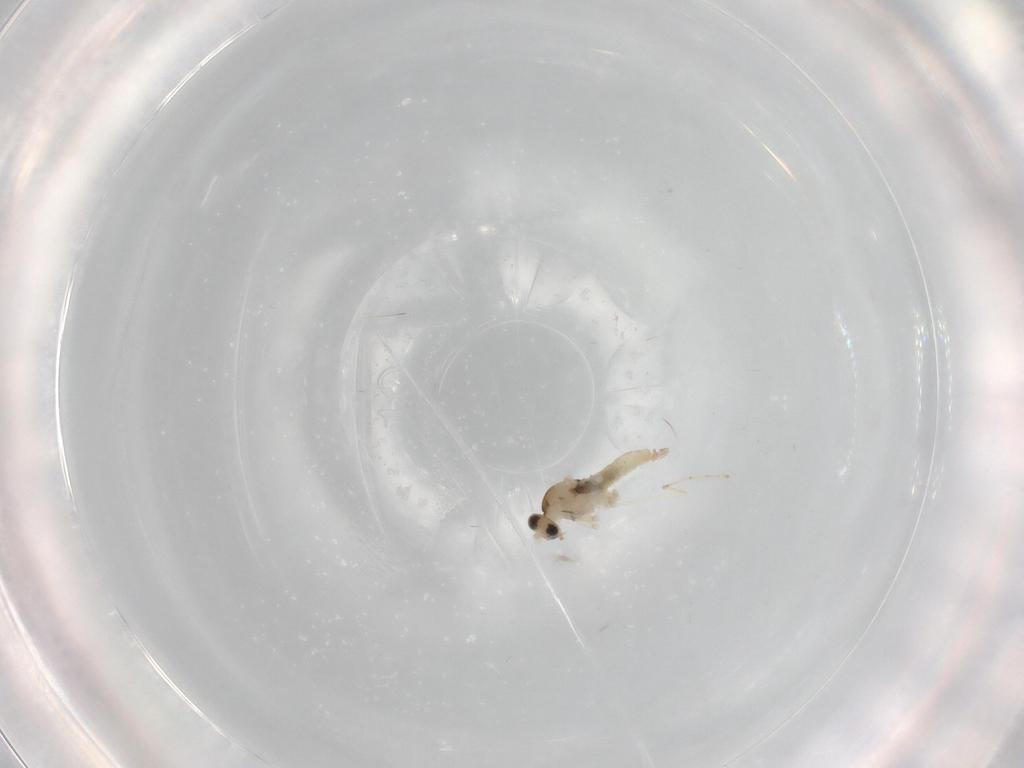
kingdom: Animalia
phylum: Arthropoda
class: Insecta
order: Diptera
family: Cecidomyiidae
